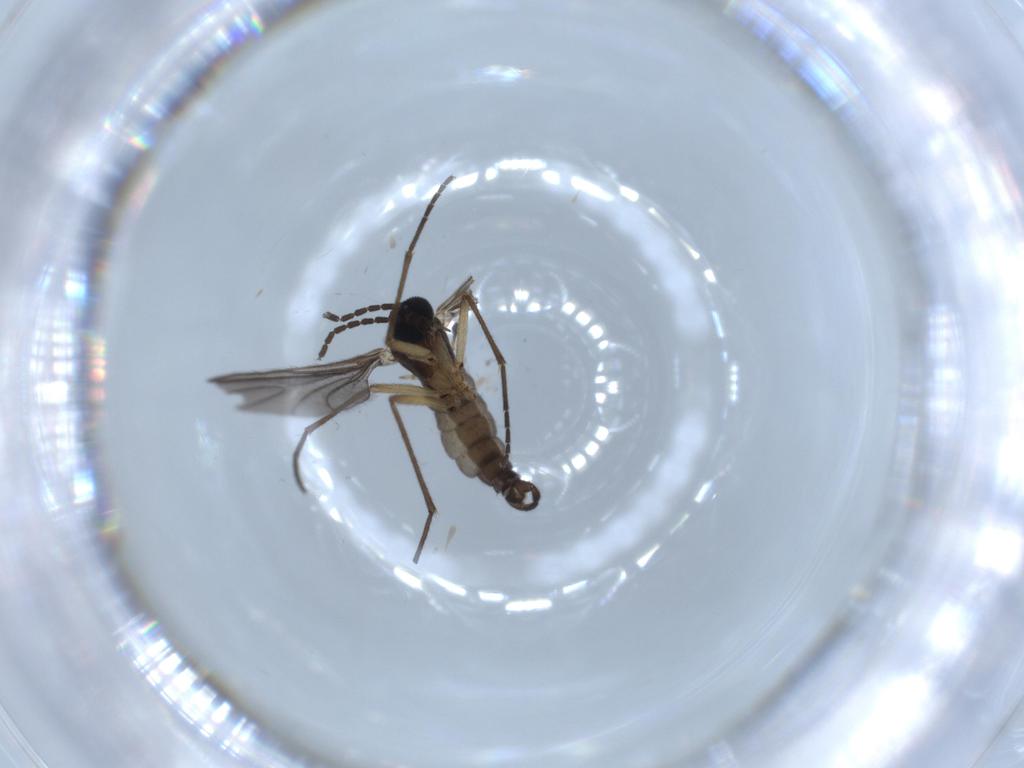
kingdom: Animalia
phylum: Arthropoda
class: Insecta
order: Diptera
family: Sciaridae
